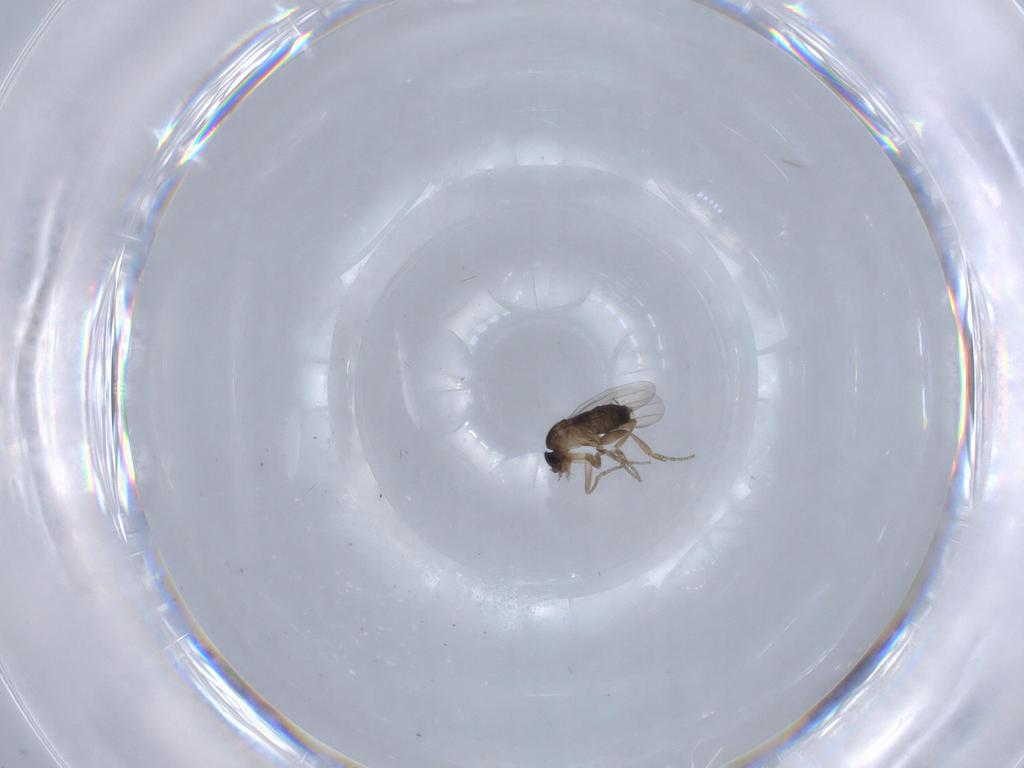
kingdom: Animalia
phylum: Arthropoda
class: Insecta
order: Diptera
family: Phoridae
